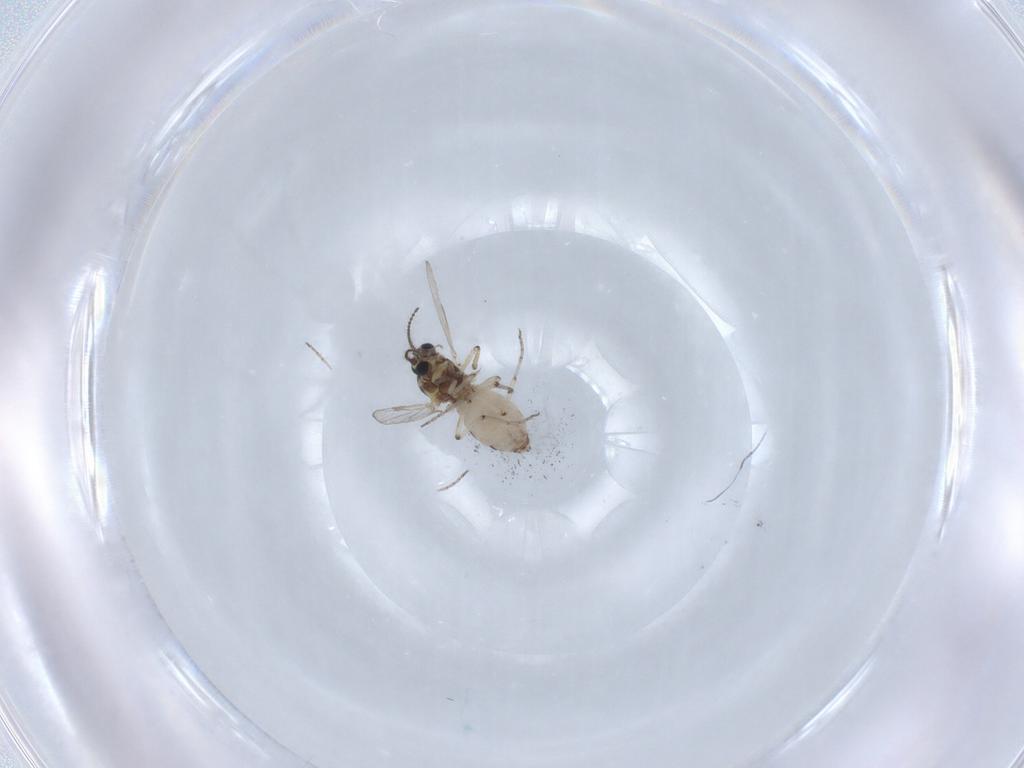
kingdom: Animalia
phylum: Arthropoda
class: Insecta
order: Diptera
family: Ceratopogonidae
